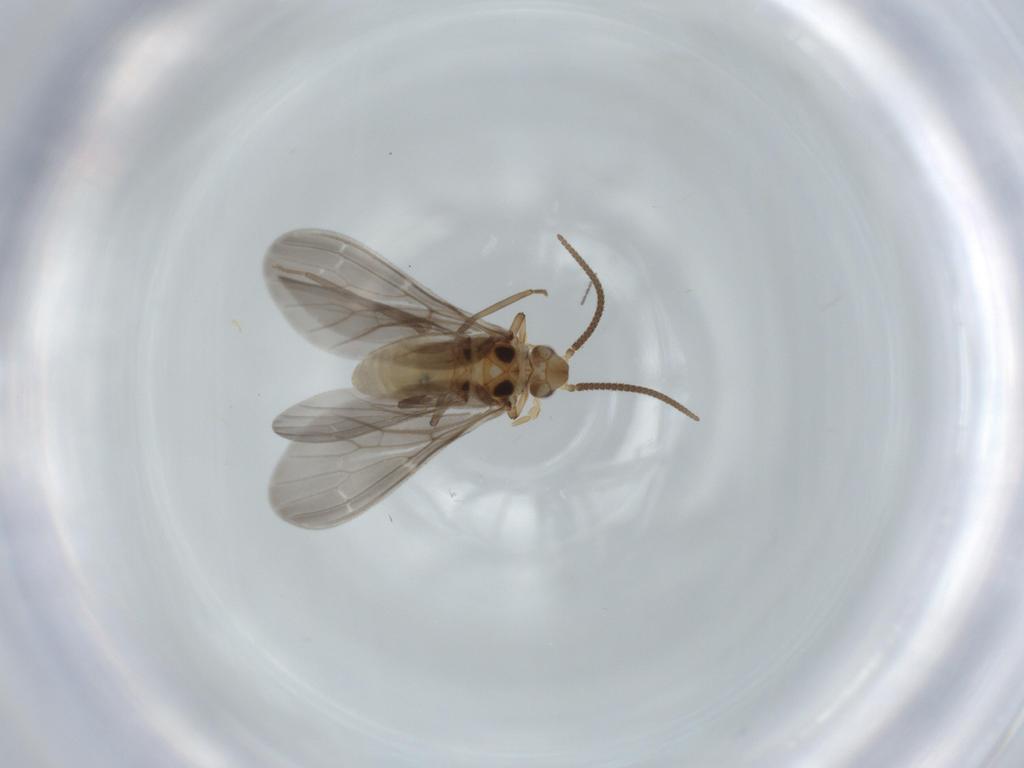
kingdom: Animalia
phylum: Arthropoda
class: Insecta
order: Neuroptera
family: Coniopterygidae
